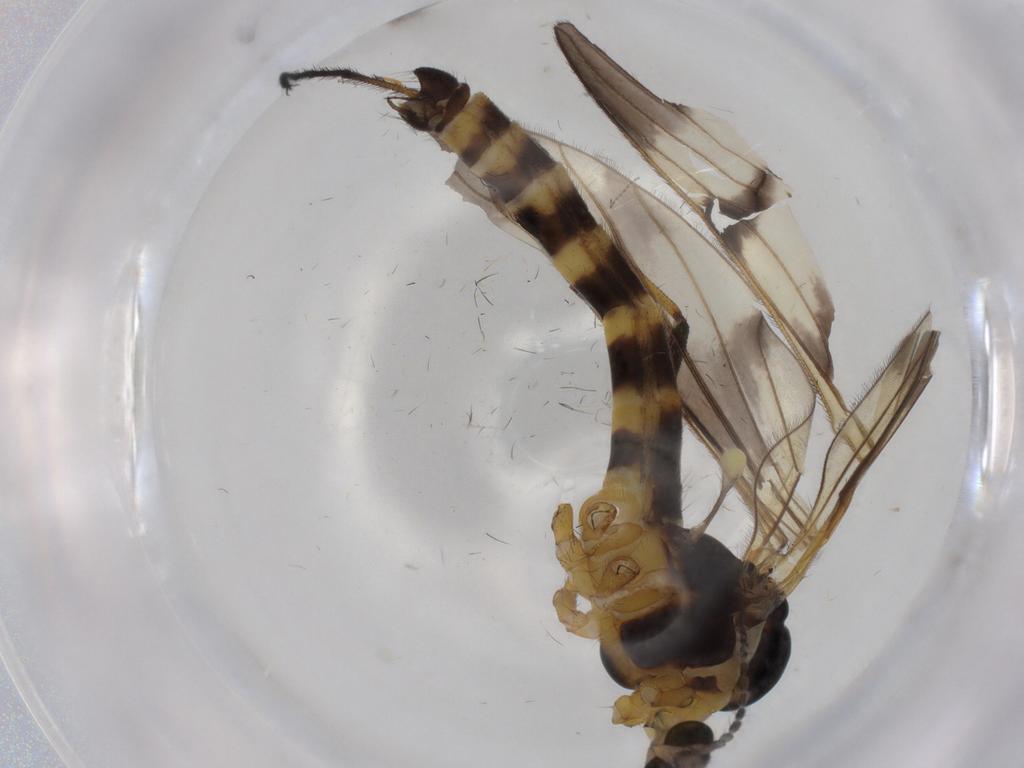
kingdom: Animalia
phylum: Arthropoda
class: Insecta
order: Diptera
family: Limoniidae
